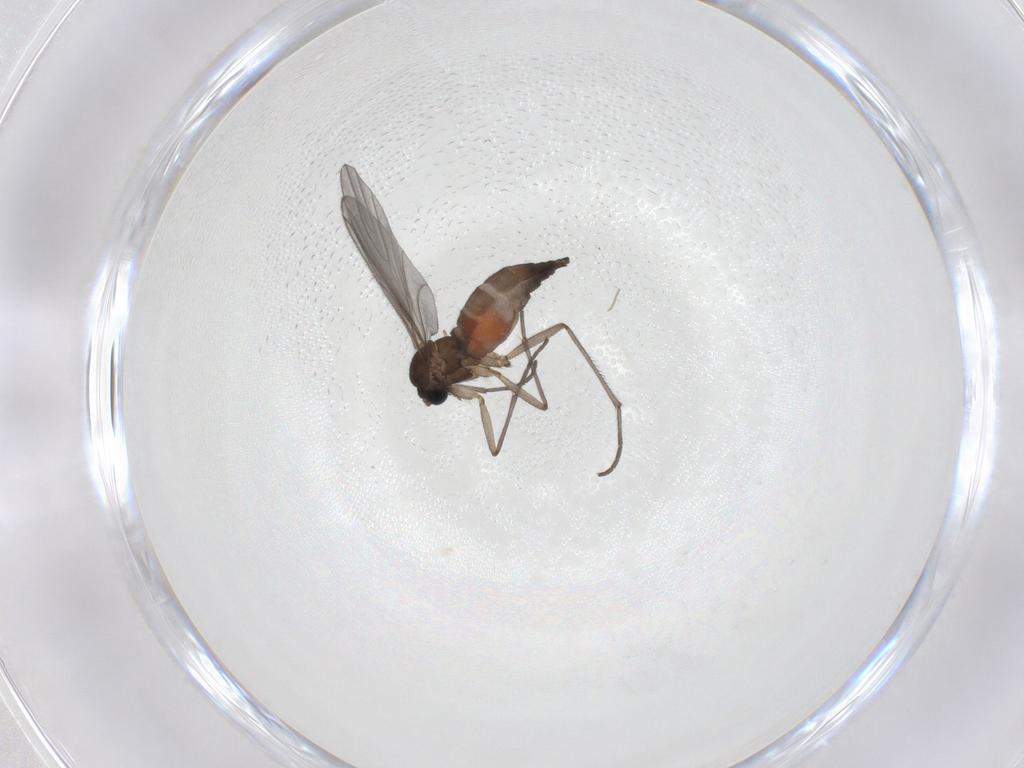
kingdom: Animalia
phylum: Arthropoda
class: Insecta
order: Diptera
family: Sciaridae
